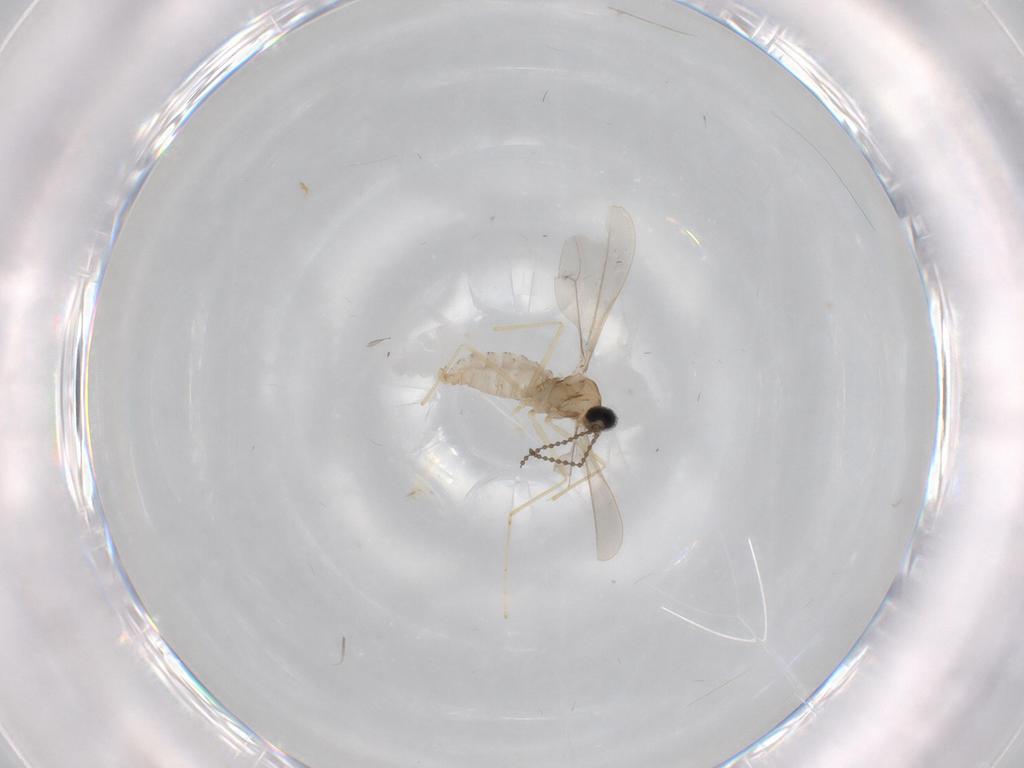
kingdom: Animalia
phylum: Arthropoda
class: Insecta
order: Diptera
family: Cecidomyiidae
